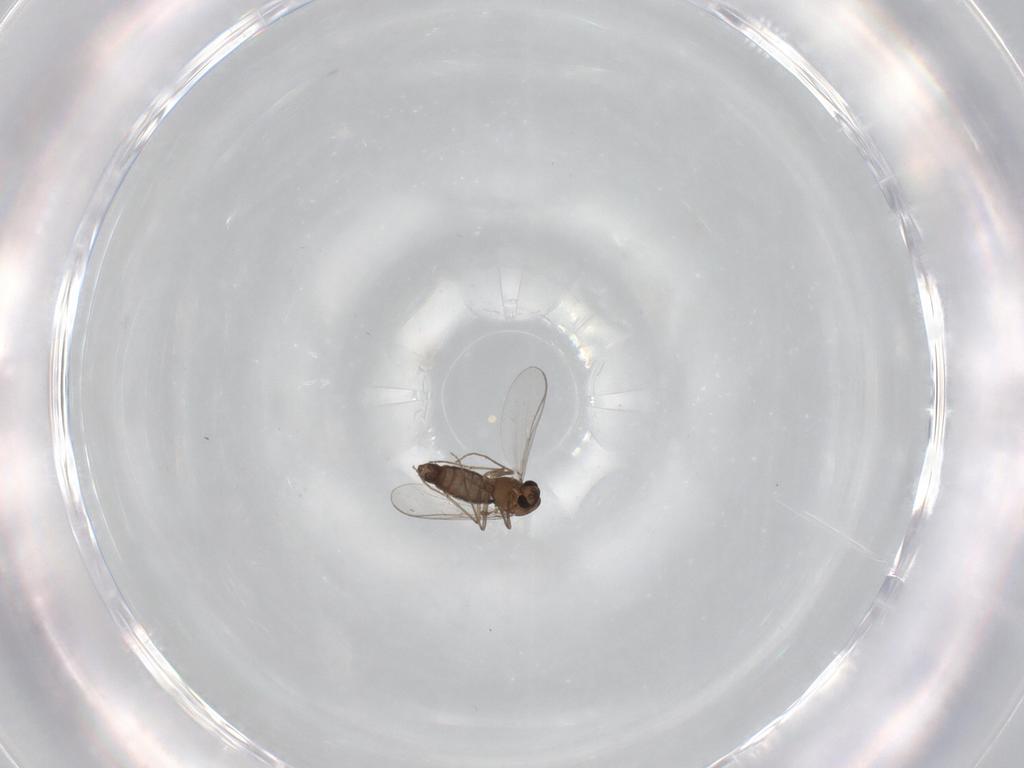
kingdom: Animalia
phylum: Arthropoda
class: Insecta
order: Diptera
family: Chironomidae
